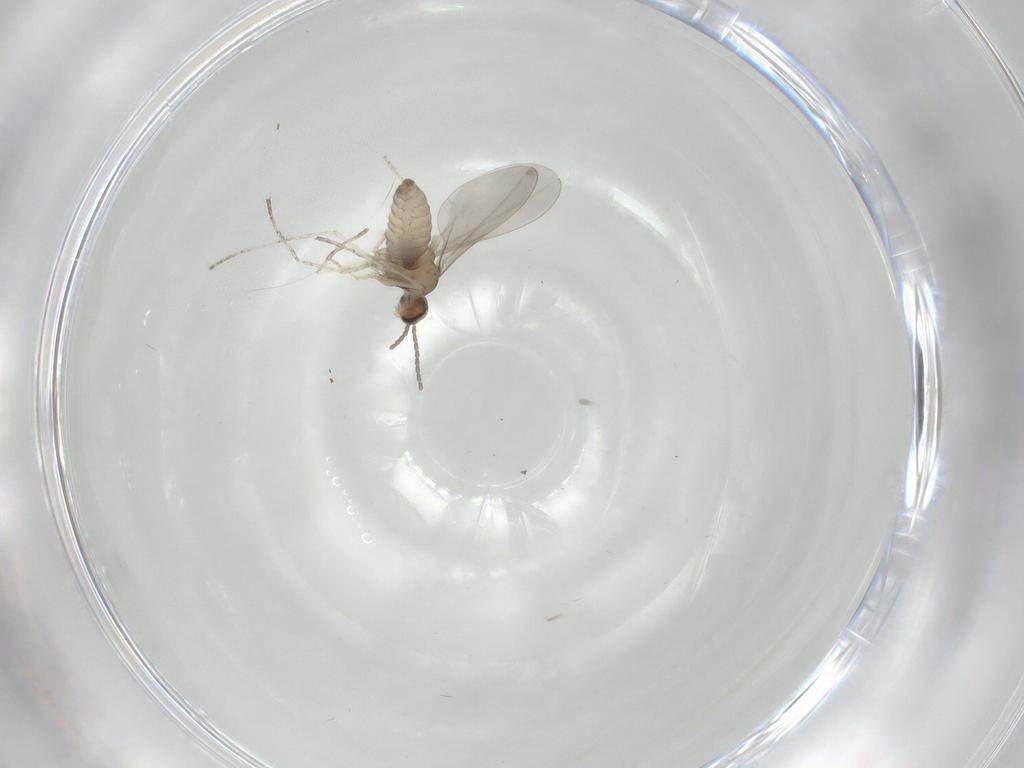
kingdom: Animalia
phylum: Arthropoda
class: Insecta
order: Diptera
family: Cecidomyiidae
